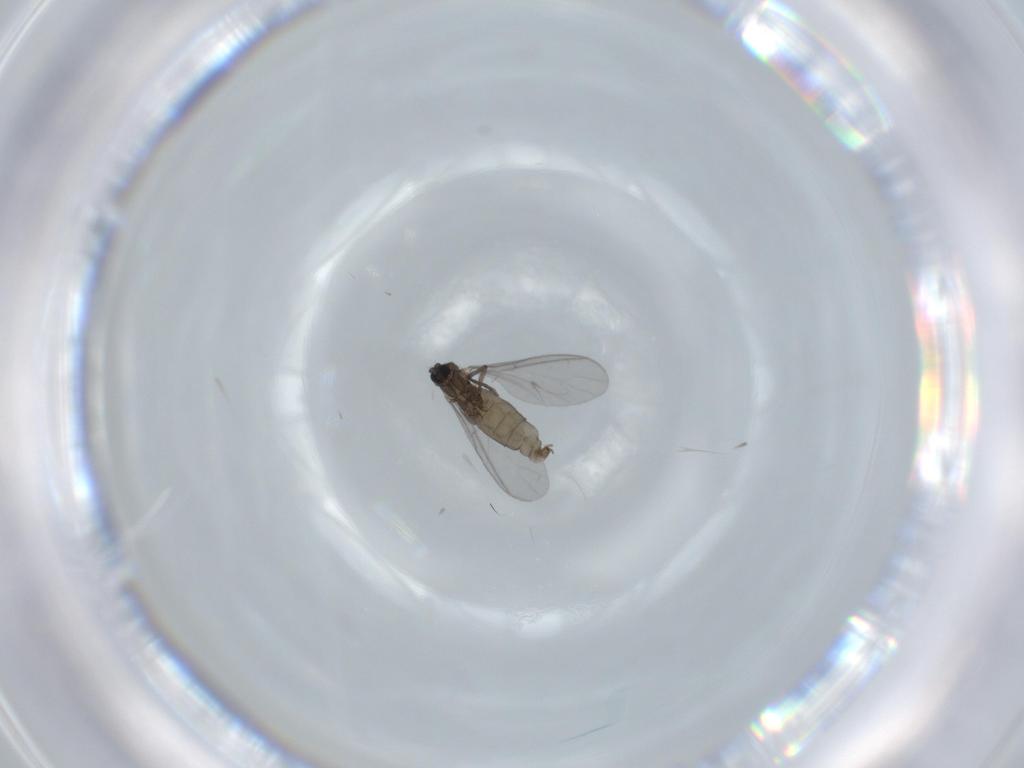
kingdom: Animalia
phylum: Arthropoda
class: Insecta
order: Diptera
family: Sciaridae
